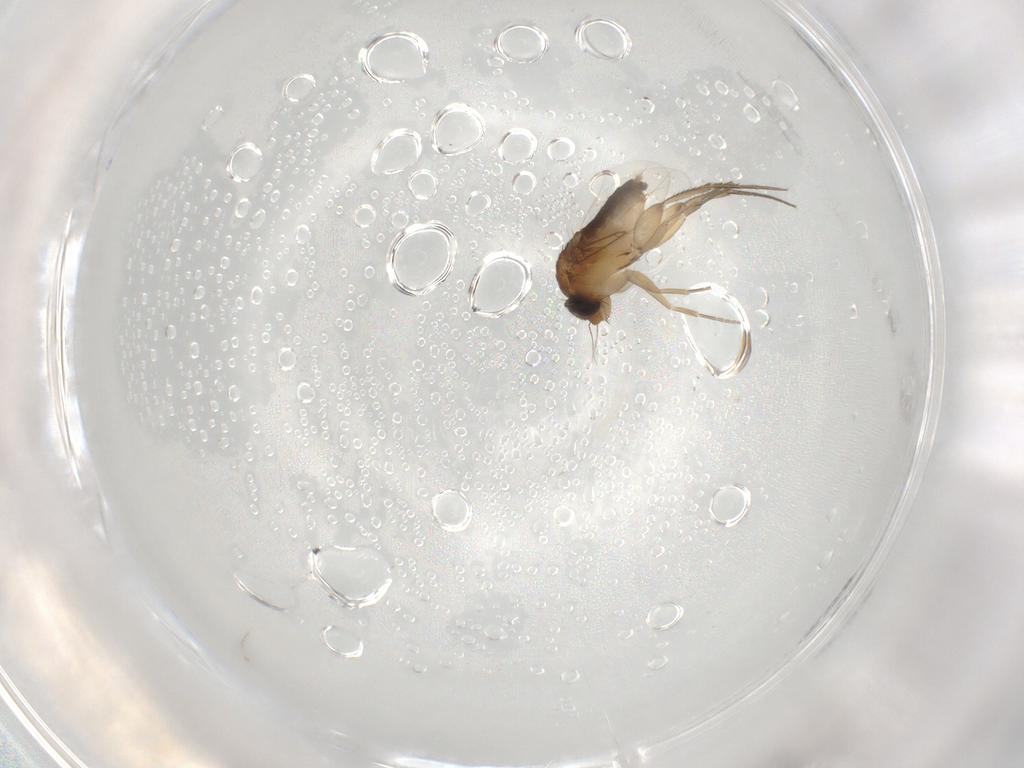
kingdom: Animalia
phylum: Arthropoda
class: Insecta
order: Diptera
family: Phoridae
